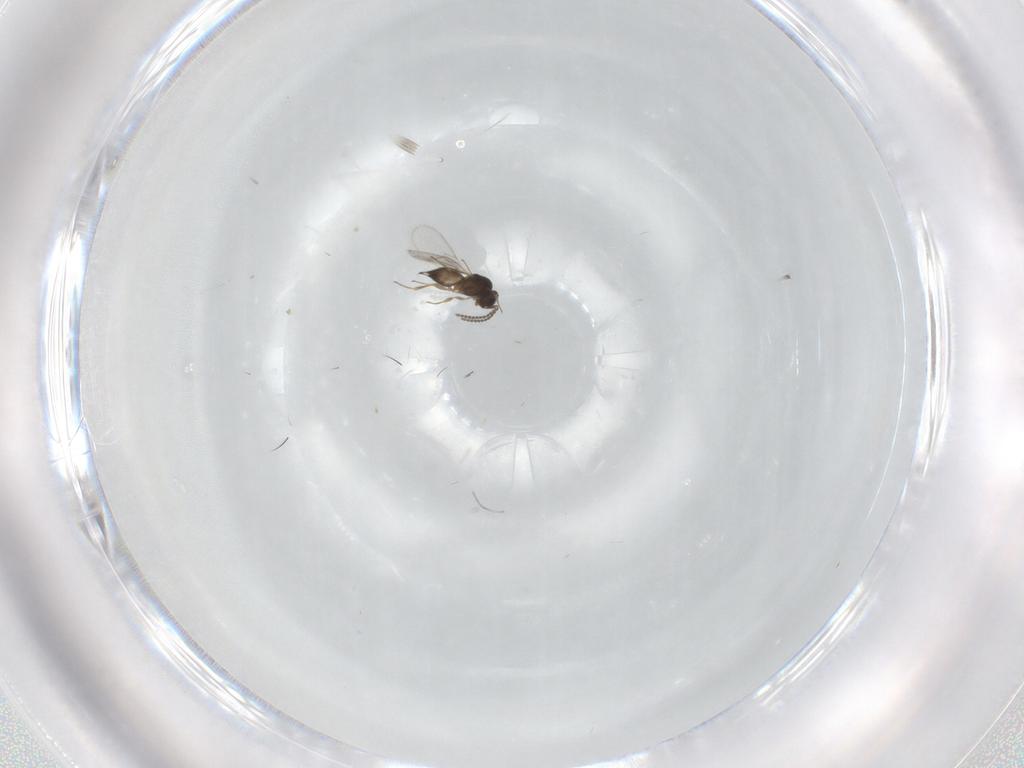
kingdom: Animalia
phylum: Arthropoda
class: Insecta
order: Hymenoptera
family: Scelionidae
